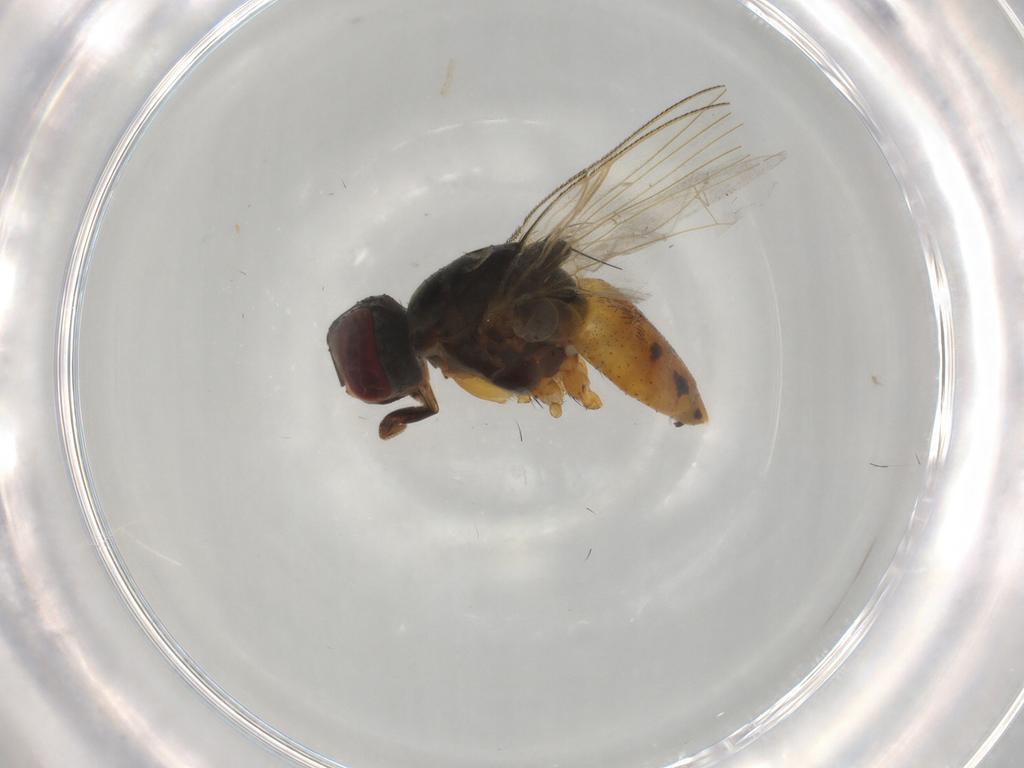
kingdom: Animalia
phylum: Arthropoda
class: Insecta
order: Diptera
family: Muscidae
